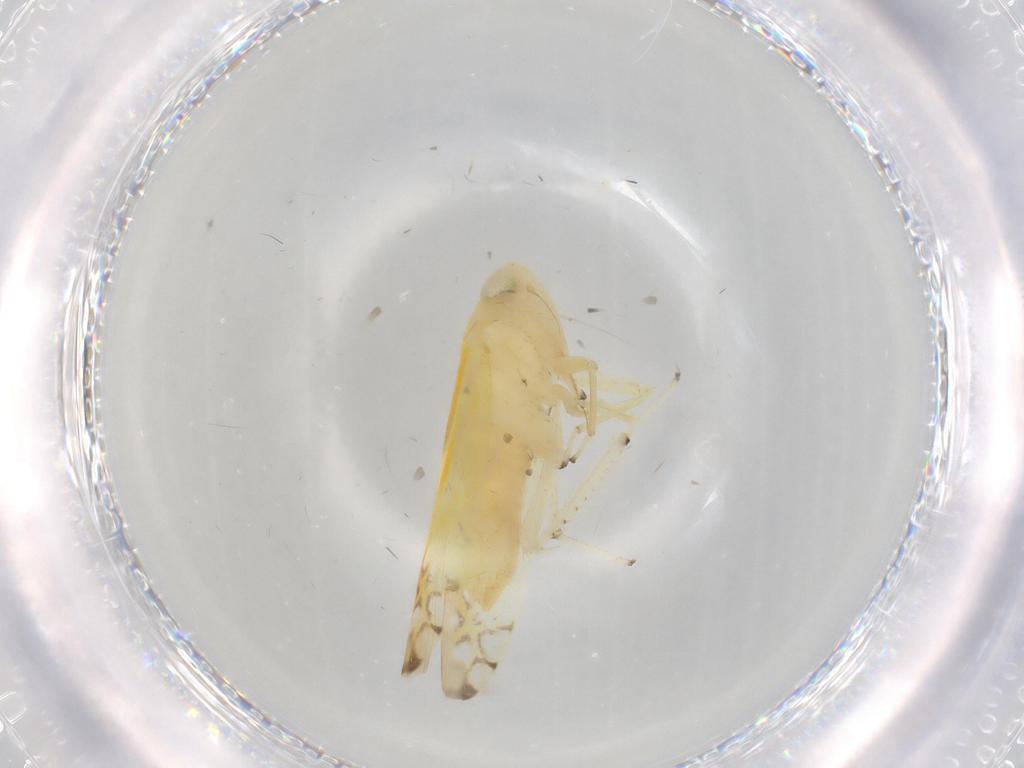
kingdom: Animalia
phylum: Arthropoda
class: Insecta
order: Hemiptera
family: Cicadellidae
